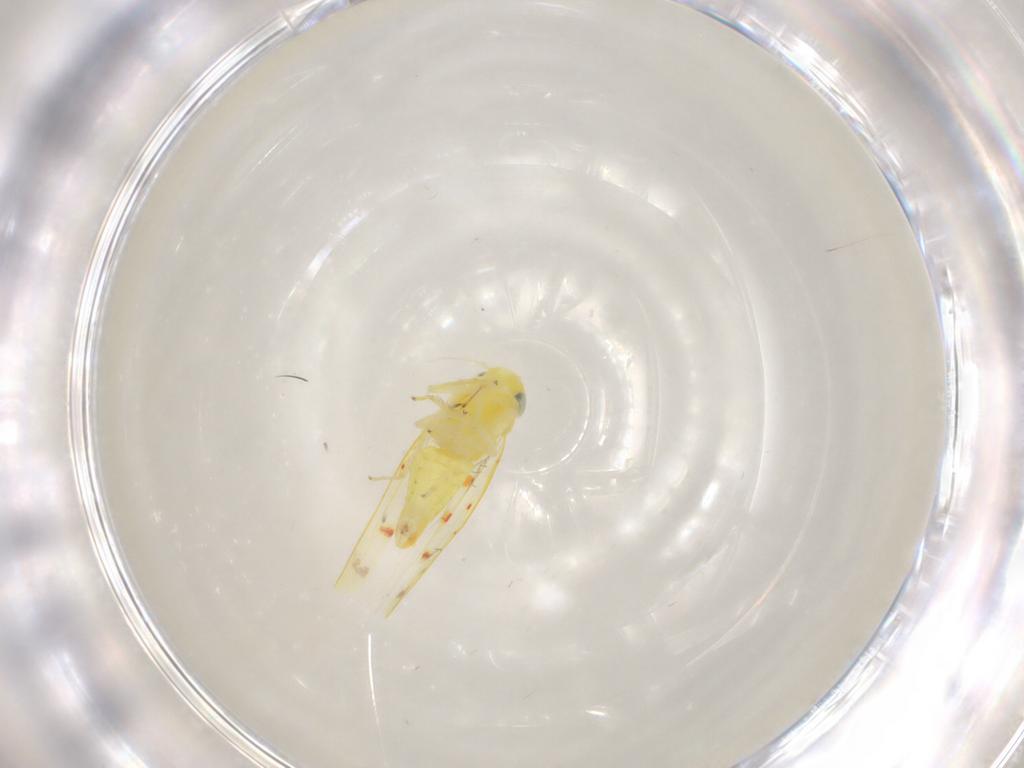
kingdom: Animalia
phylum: Arthropoda
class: Insecta
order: Hemiptera
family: Cicadellidae
